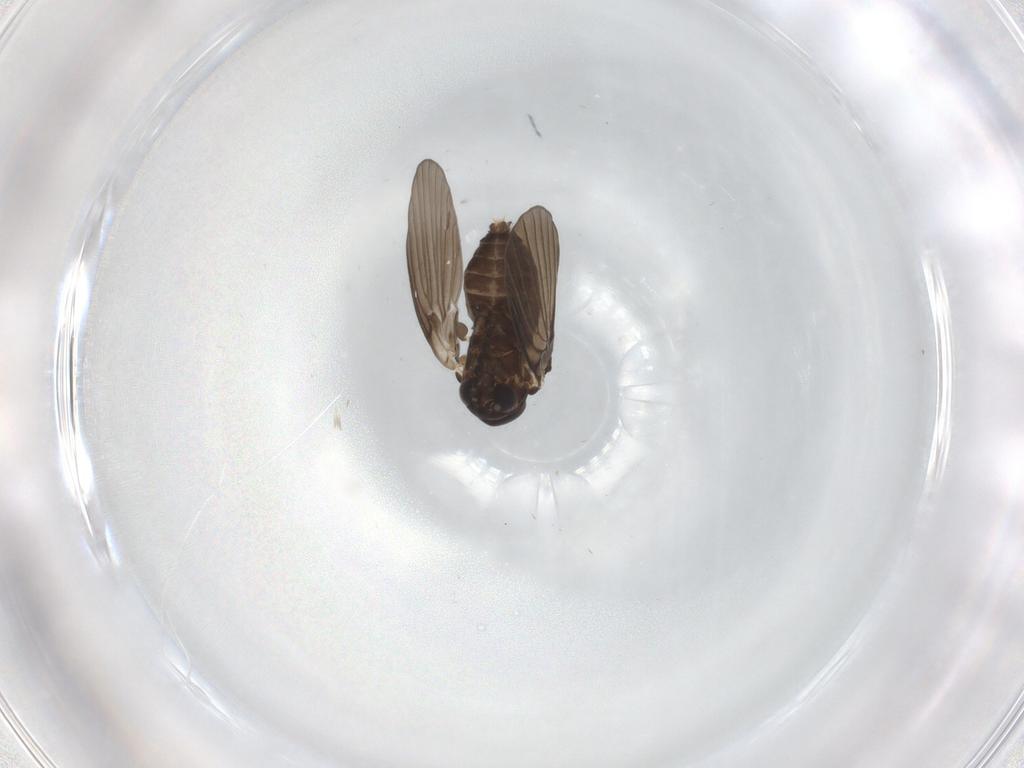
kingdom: Animalia
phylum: Arthropoda
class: Insecta
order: Diptera
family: Psychodidae
